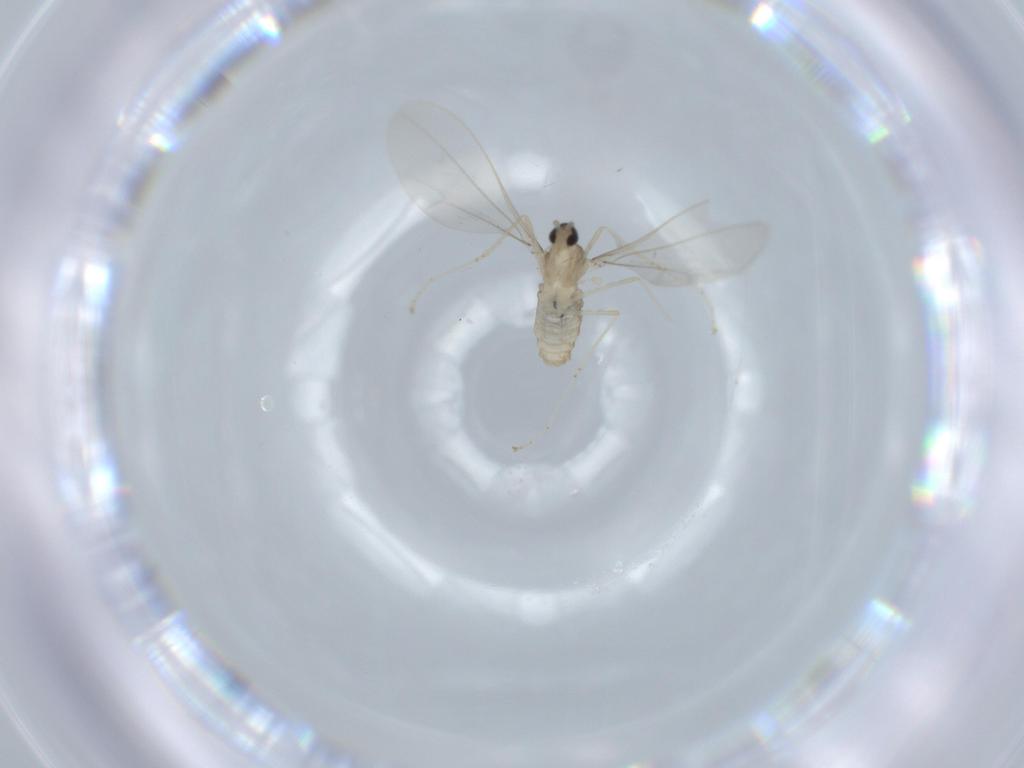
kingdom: Animalia
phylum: Arthropoda
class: Insecta
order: Diptera
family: Cecidomyiidae
